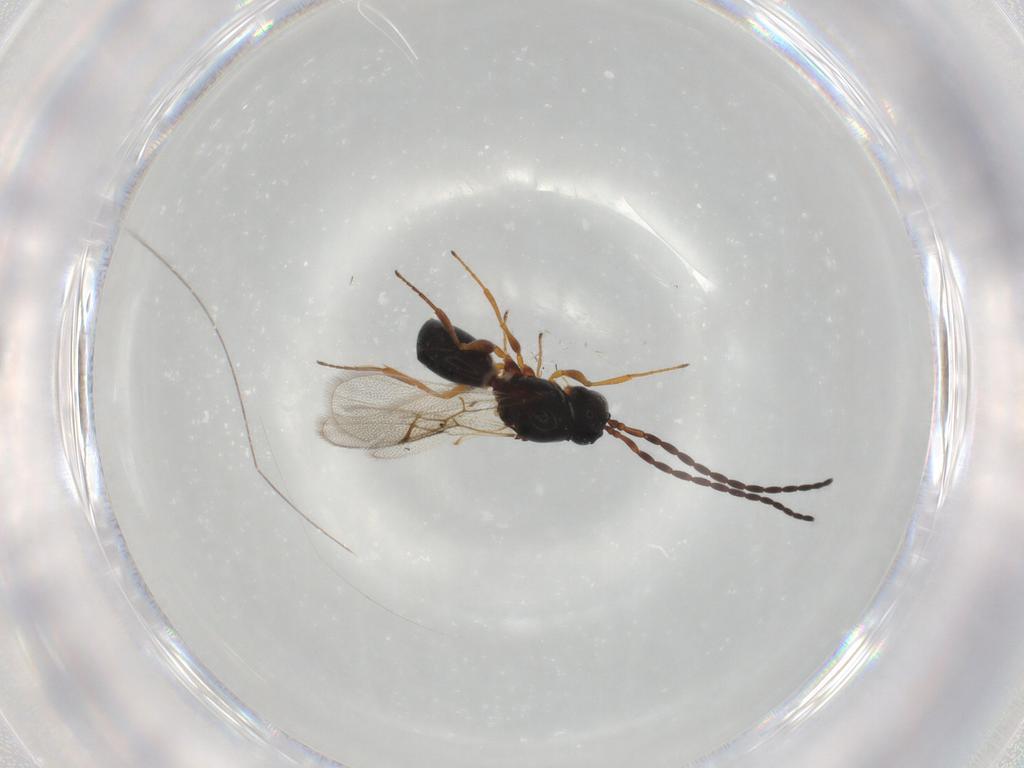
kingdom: Animalia
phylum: Arthropoda
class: Insecta
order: Hymenoptera
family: Figitidae
